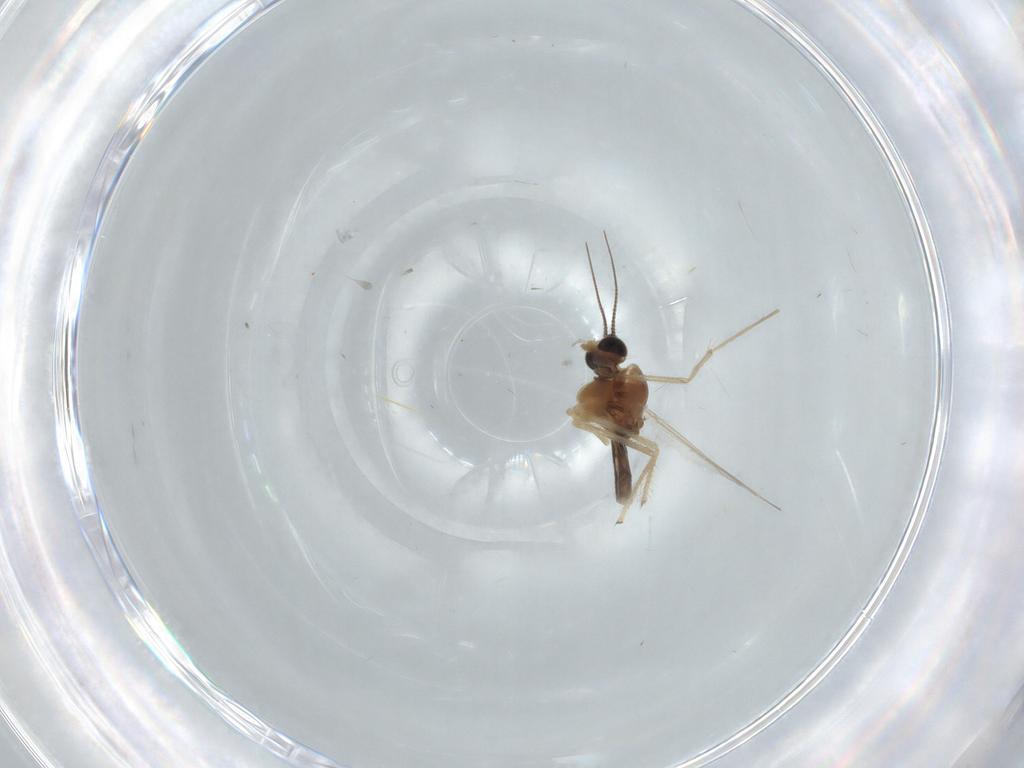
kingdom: Animalia
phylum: Arthropoda
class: Insecta
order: Diptera
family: Chironomidae
